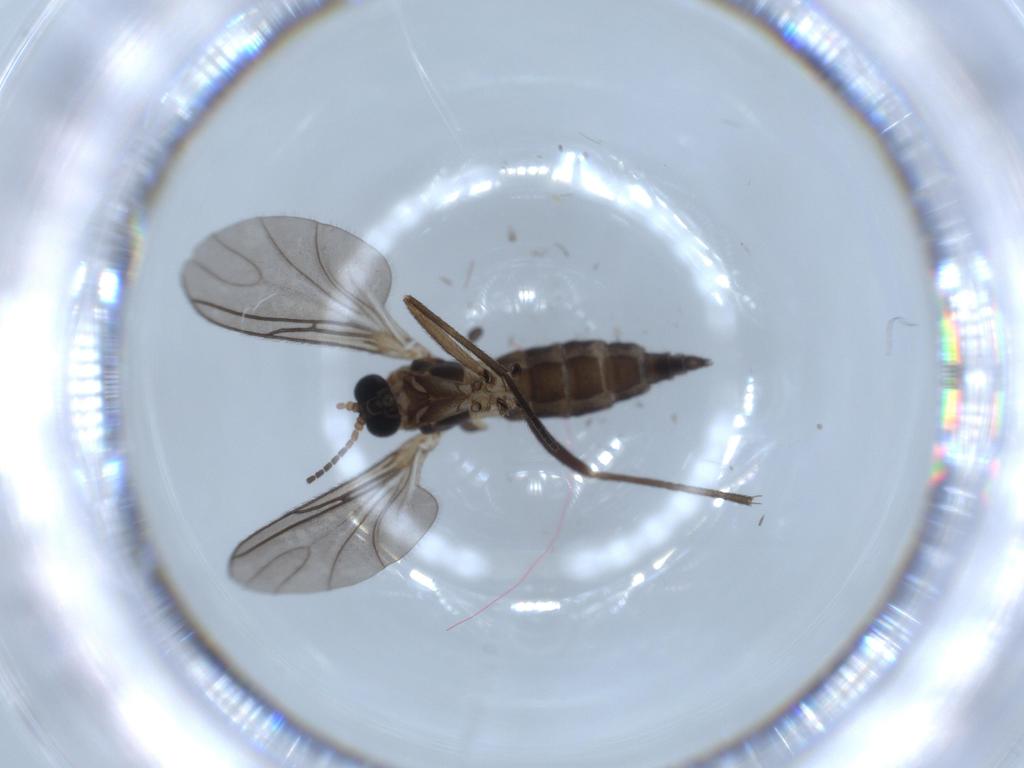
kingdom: Animalia
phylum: Arthropoda
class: Insecta
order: Diptera
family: Sciaridae
